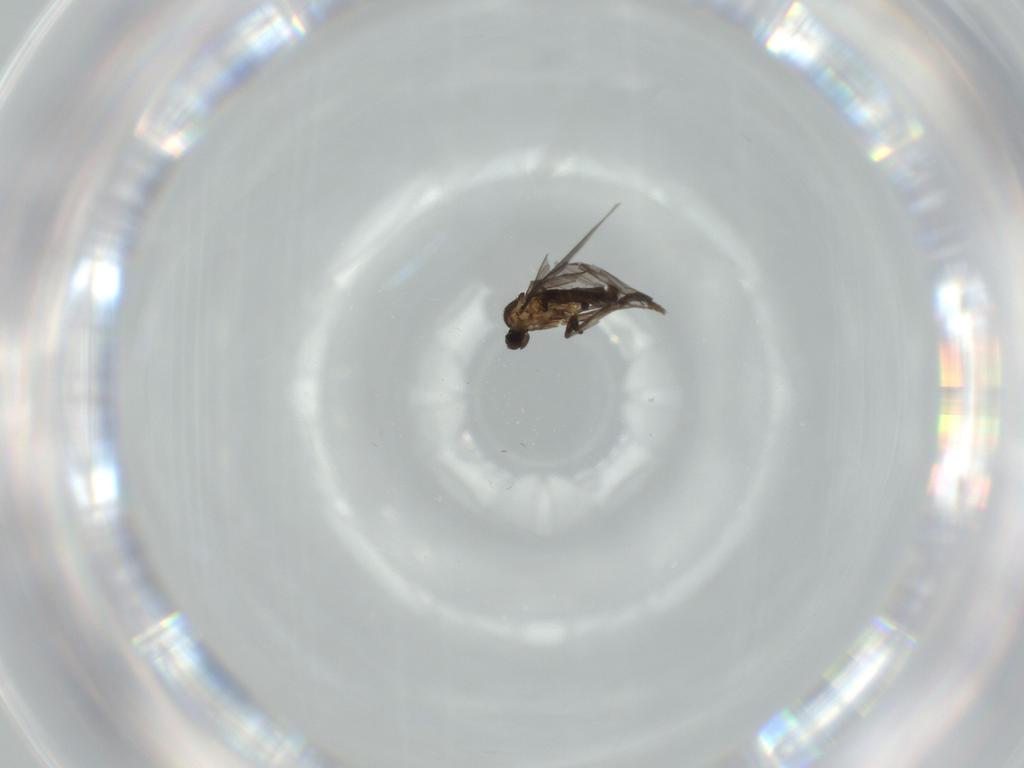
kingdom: Animalia
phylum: Arthropoda
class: Insecta
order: Diptera
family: Phoridae
